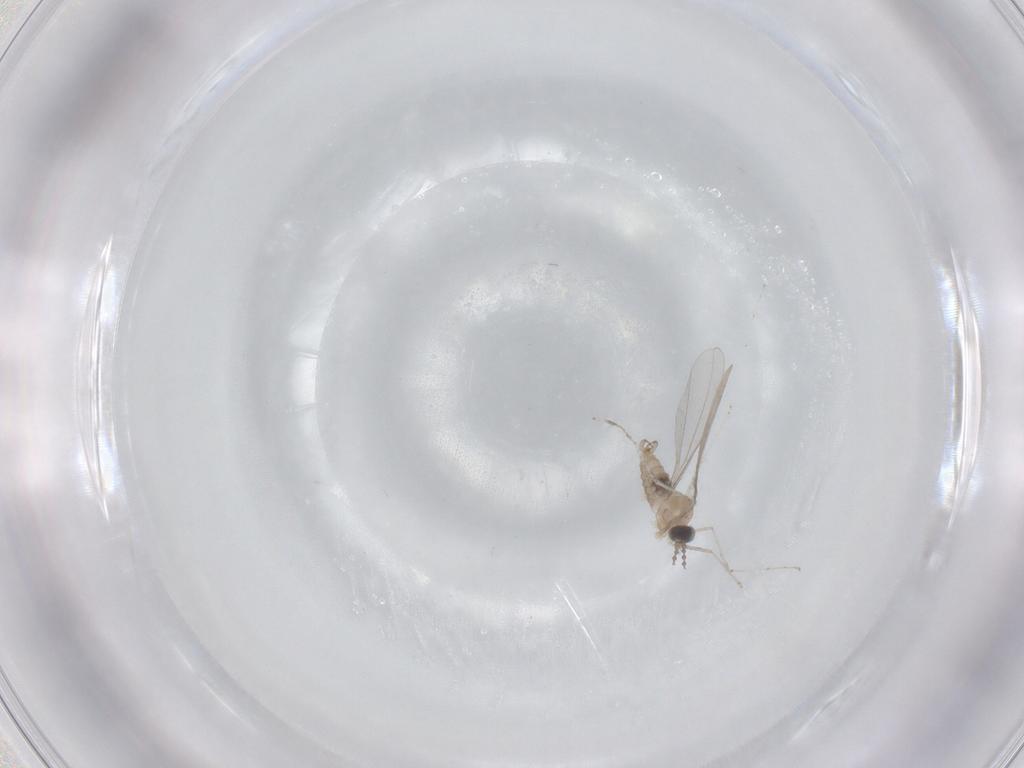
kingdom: Animalia
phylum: Arthropoda
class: Insecta
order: Diptera
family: Cecidomyiidae
